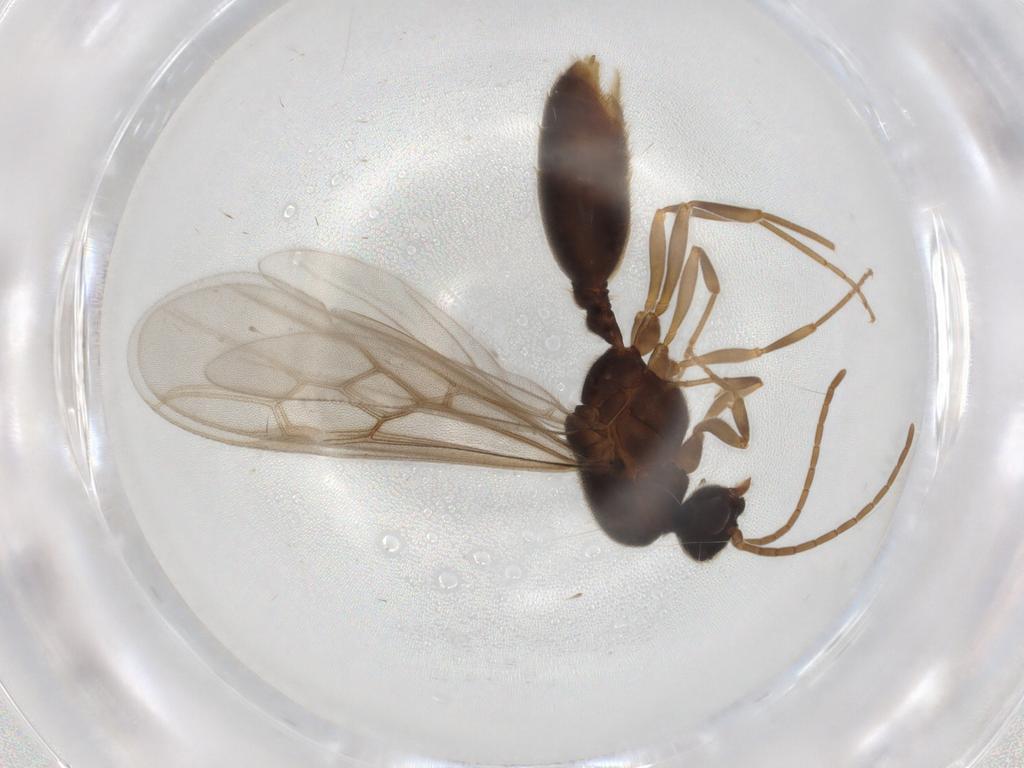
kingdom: Animalia
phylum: Arthropoda
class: Insecta
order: Hymenoptera
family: Formicidae
